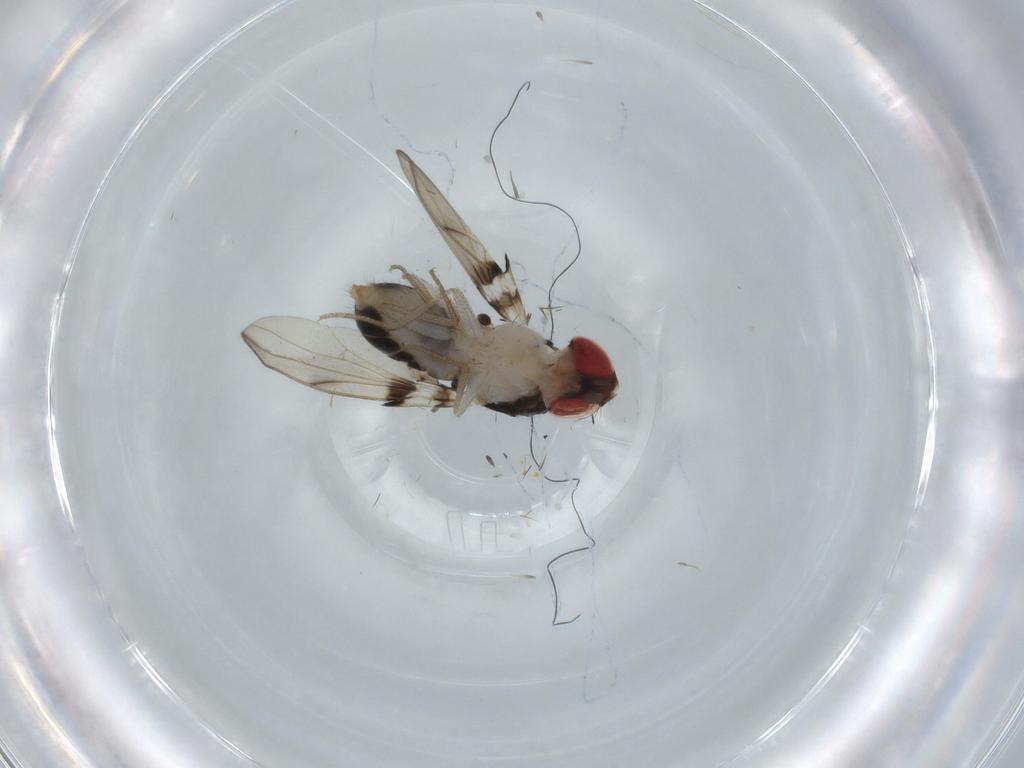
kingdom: Animalia
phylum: Arthropoda
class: Insecta
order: Diptera
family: Drosophilidae
